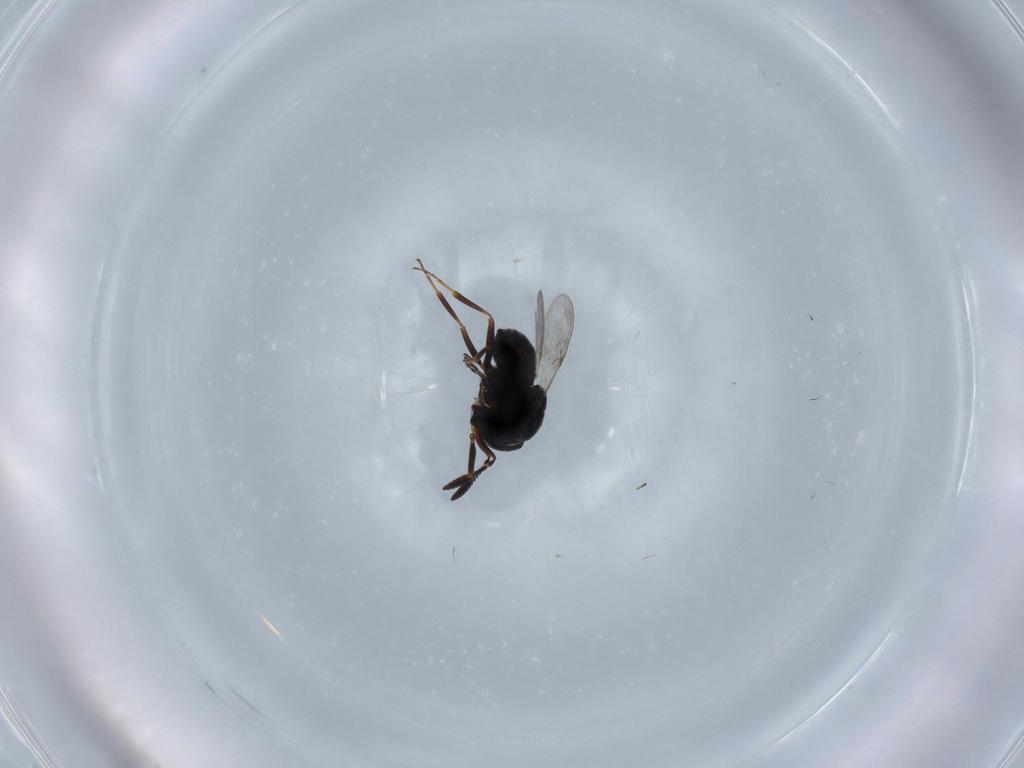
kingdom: Animalia
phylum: Arthropoda
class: Insecta
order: Hymenoptera
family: Scelionidae
